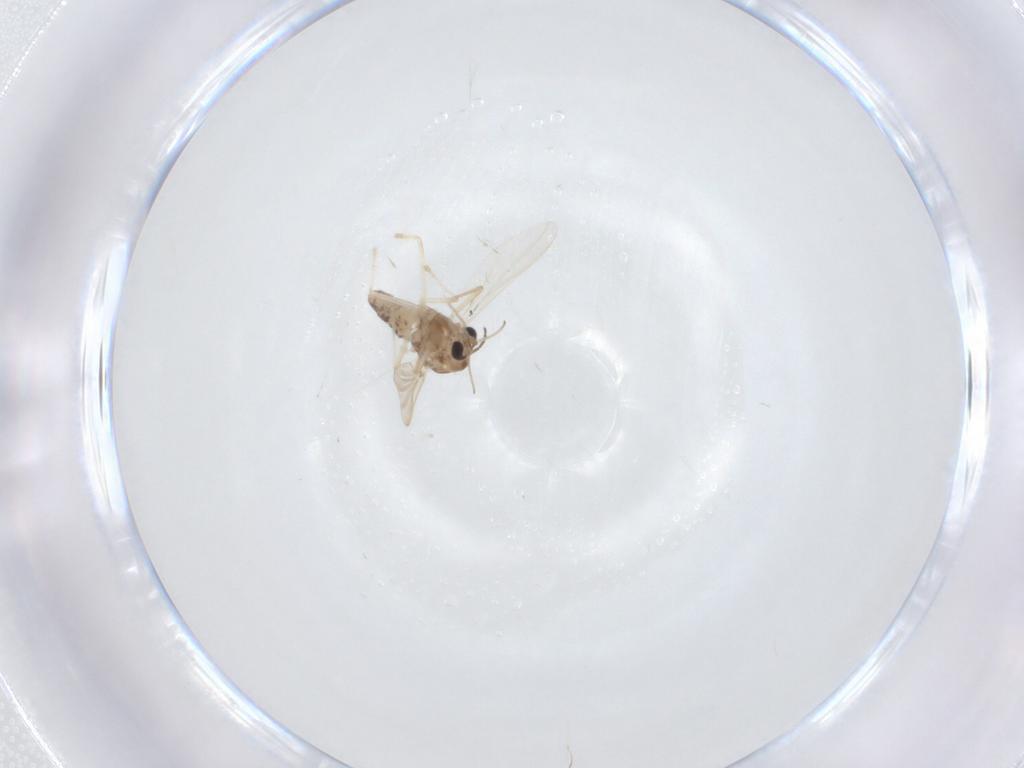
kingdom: Animalia
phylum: Arthropoda
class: Insecta
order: Diptera
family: Chironomidae
